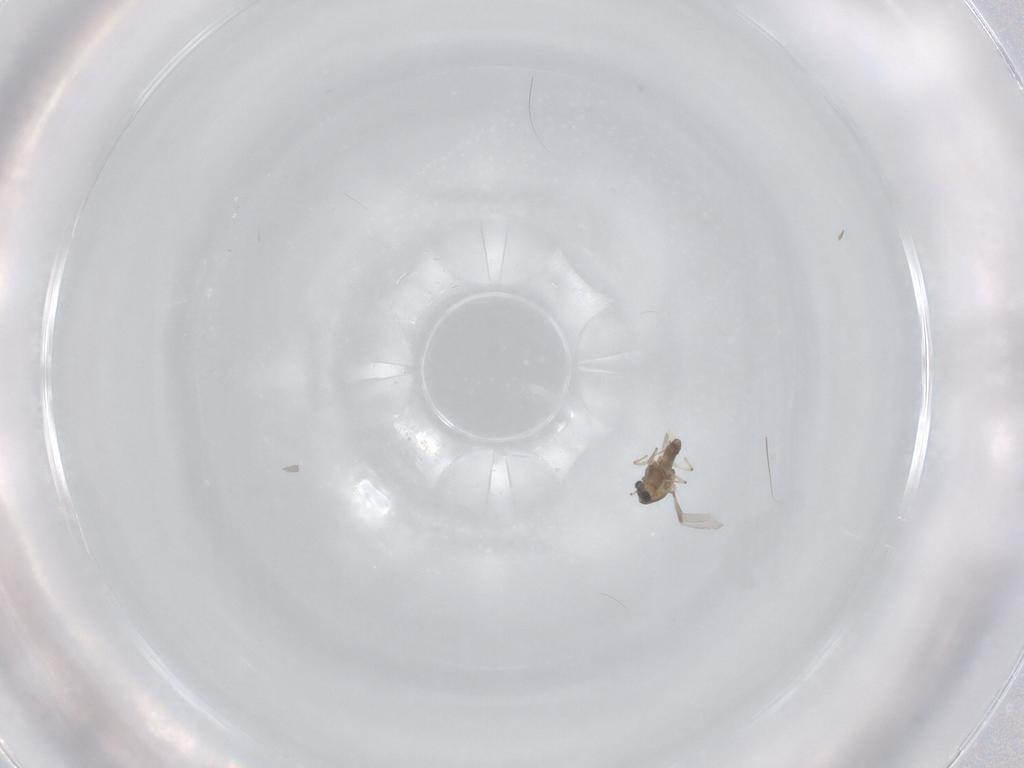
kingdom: Animalia
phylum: Arthropoda
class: Insecta
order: Diptera
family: Chironomidae
